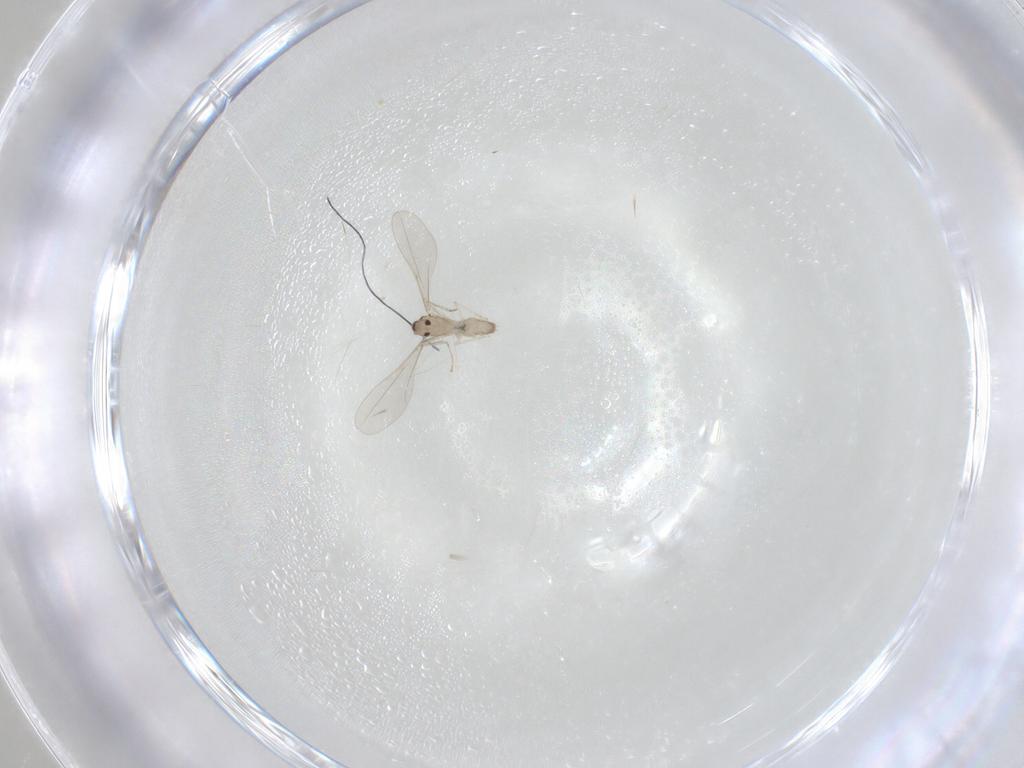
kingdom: Animalia
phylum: Arthropoda
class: Insecta
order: Diptera
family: Cecidomyiidae
